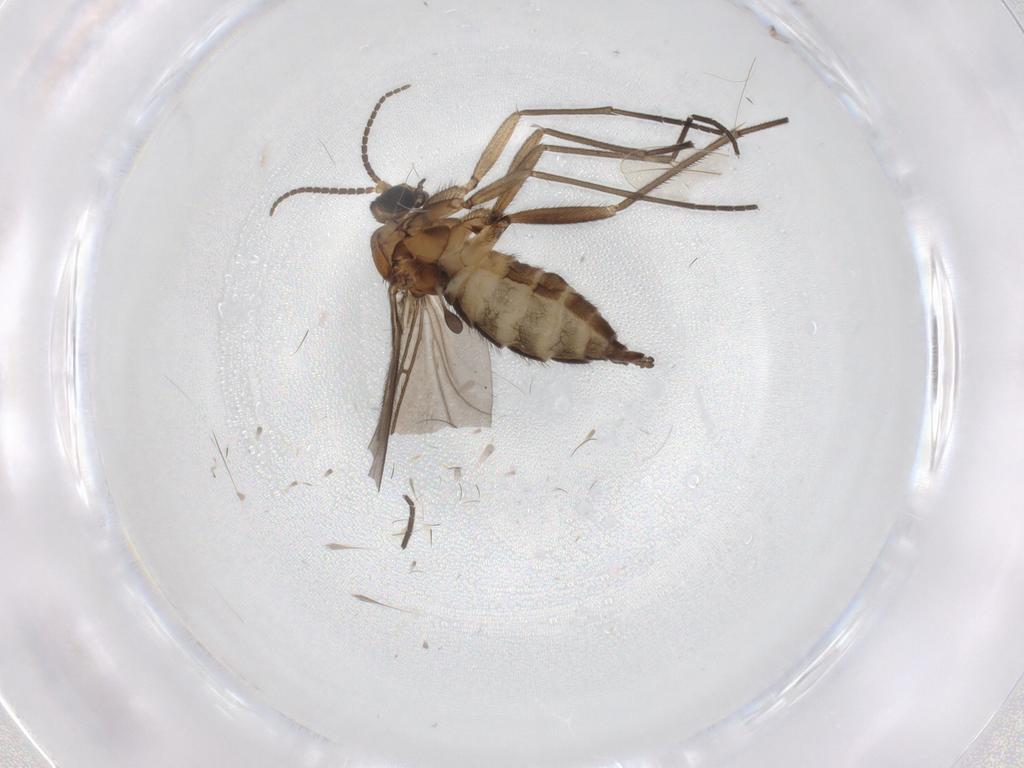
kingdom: Animalia
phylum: Arthropoda
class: Insecta
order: Diptera
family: Sciaridae
